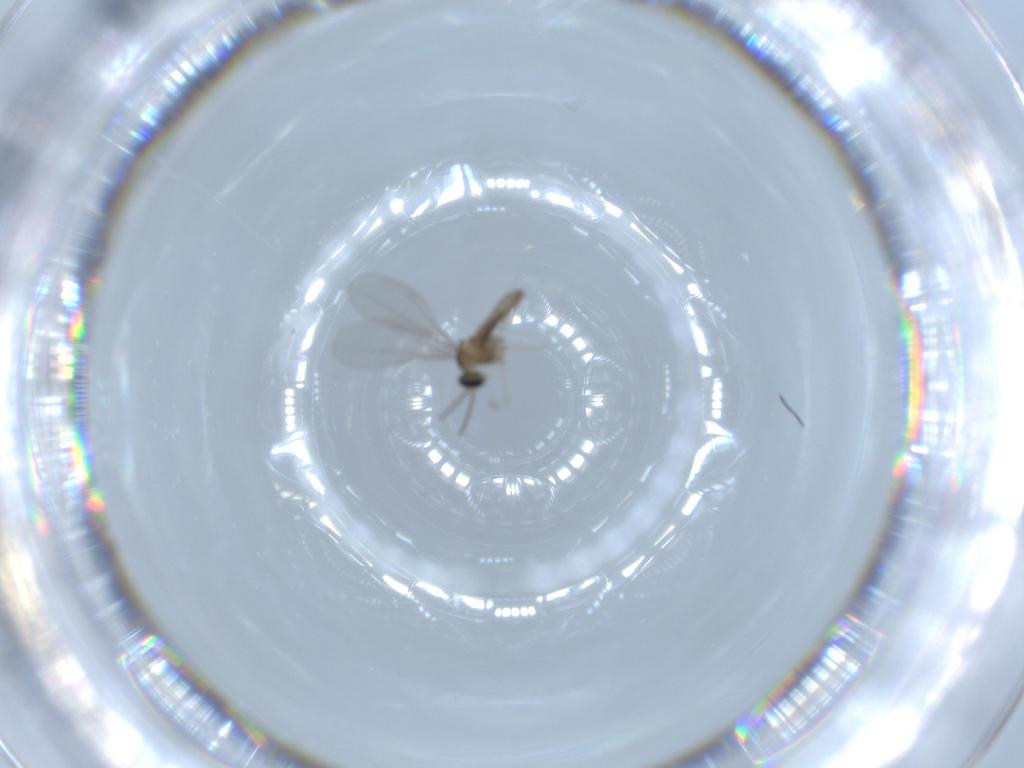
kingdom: Animalia
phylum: Arthropoda
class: Insecta
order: Diptera
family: Cecidomyiidae
